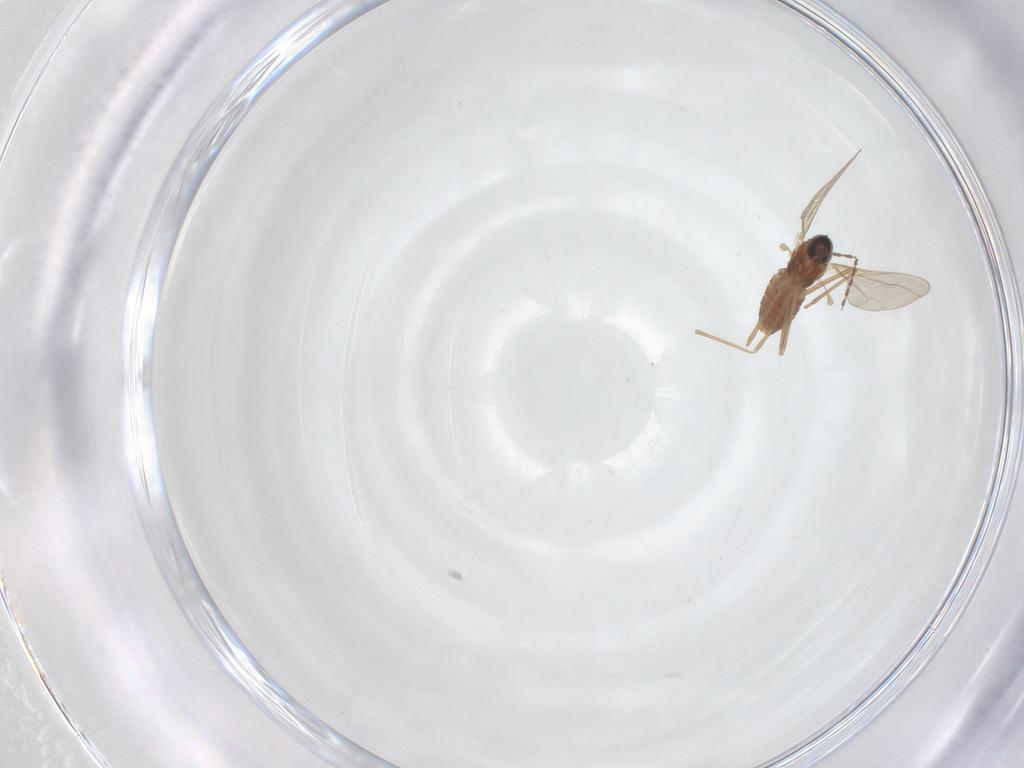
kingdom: Animalia
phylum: Arthropoda
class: Insecta
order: Diptera
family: Cecidomyiidae
